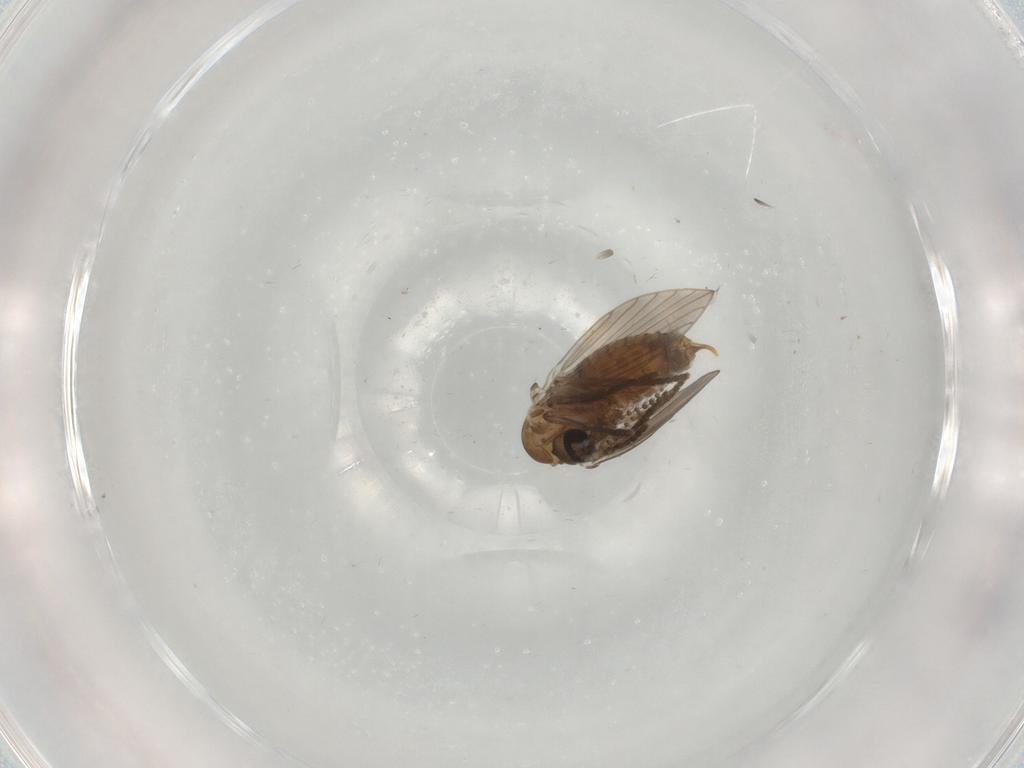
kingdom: Animalia
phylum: Arthropoda
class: Insecta
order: Diptera
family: Psychodidae
